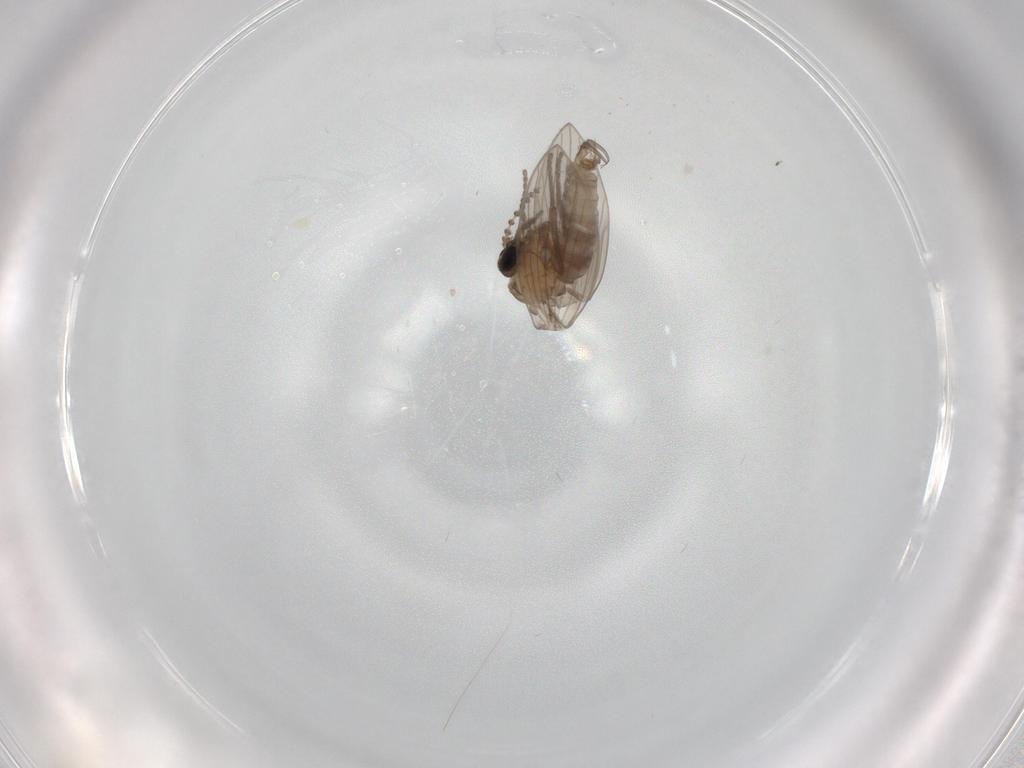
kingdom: Animalia
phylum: Arthropoda
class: Insecta
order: Diptera
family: Psychodidae
